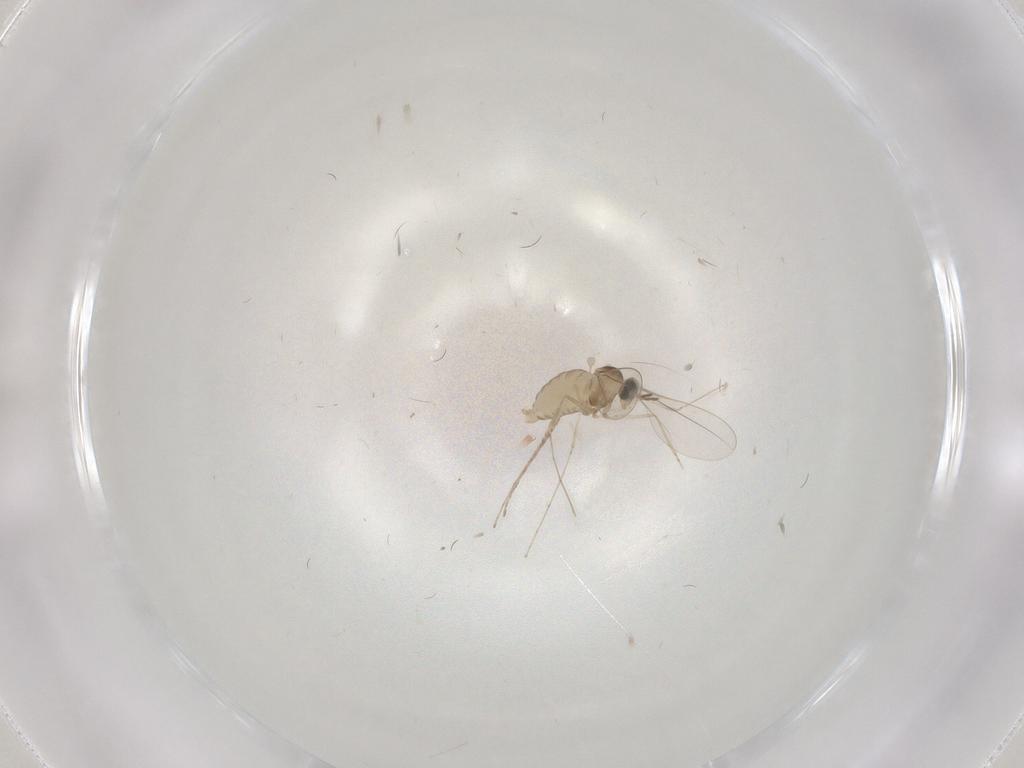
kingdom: Animalia
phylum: Arthropoda
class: Insecta
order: Diptera
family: Cecidomyiidae
